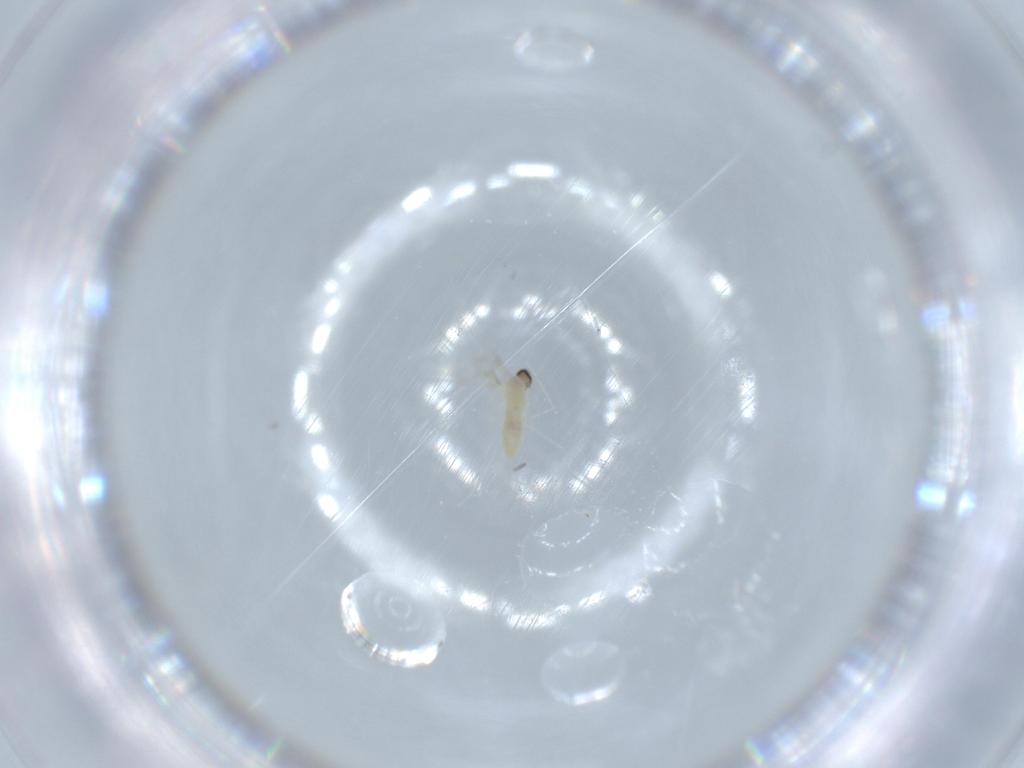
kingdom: Animalia
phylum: Arthropoda
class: Insecta
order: Diptera
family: Cecidomyiidae
